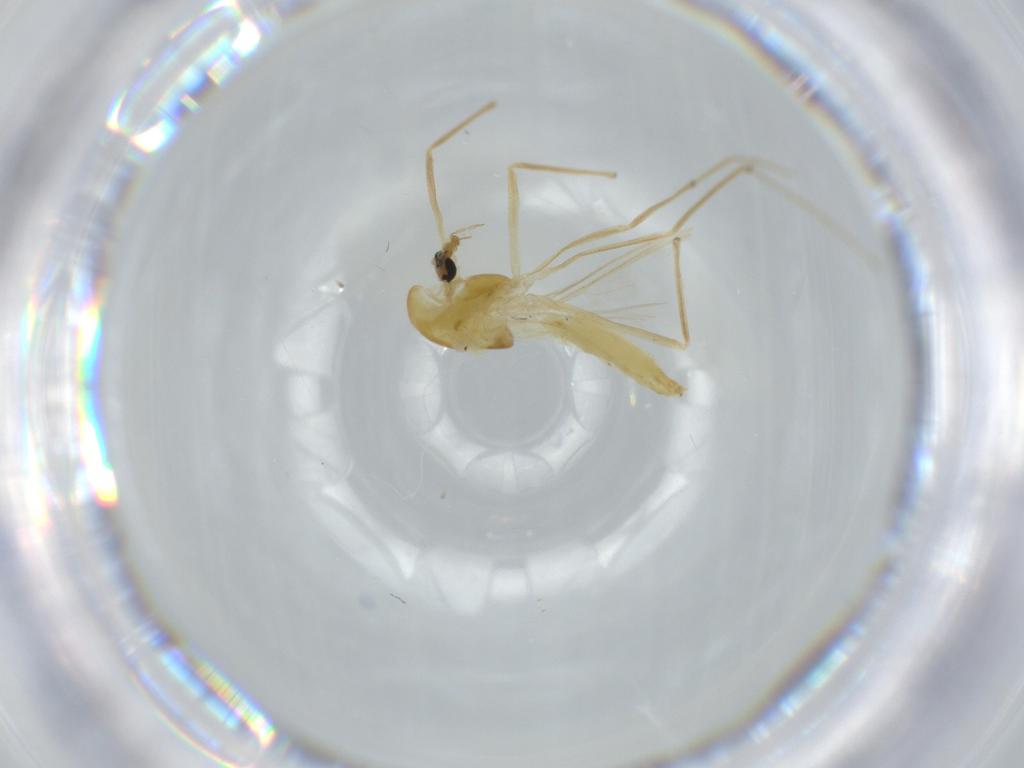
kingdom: Animalia
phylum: Arthropoda
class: Insecta
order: Diptera
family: Chironomidae
